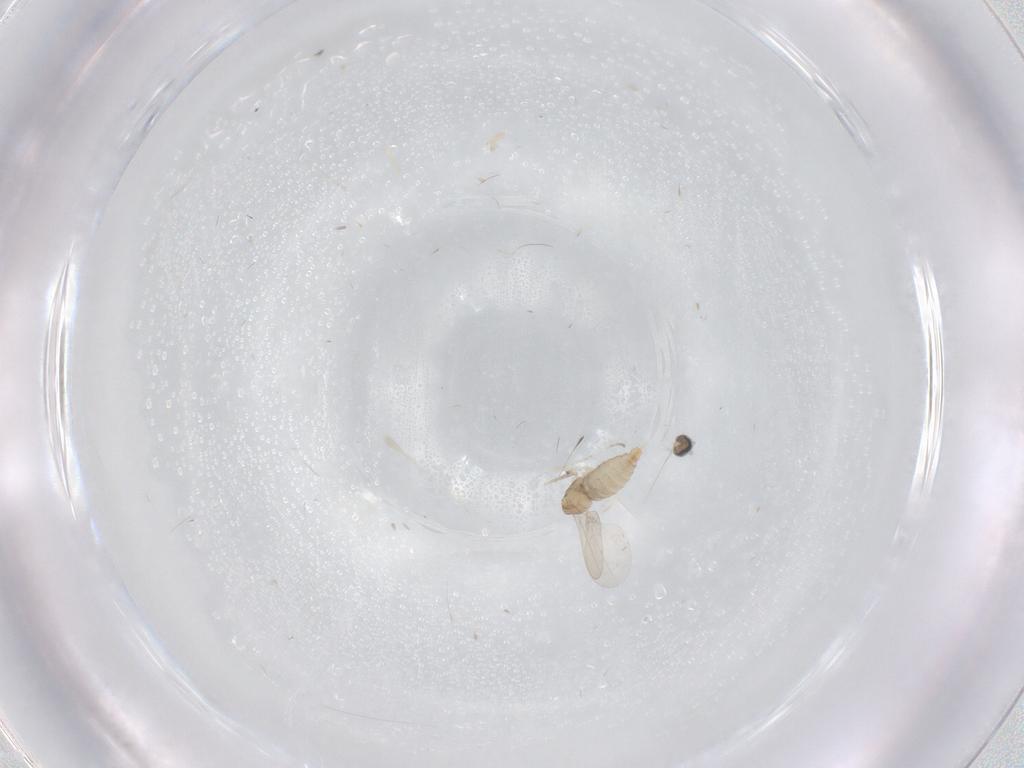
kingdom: Animalia
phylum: Arthropoda
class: Insecta
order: Diptera
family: Cecidomyiidae
